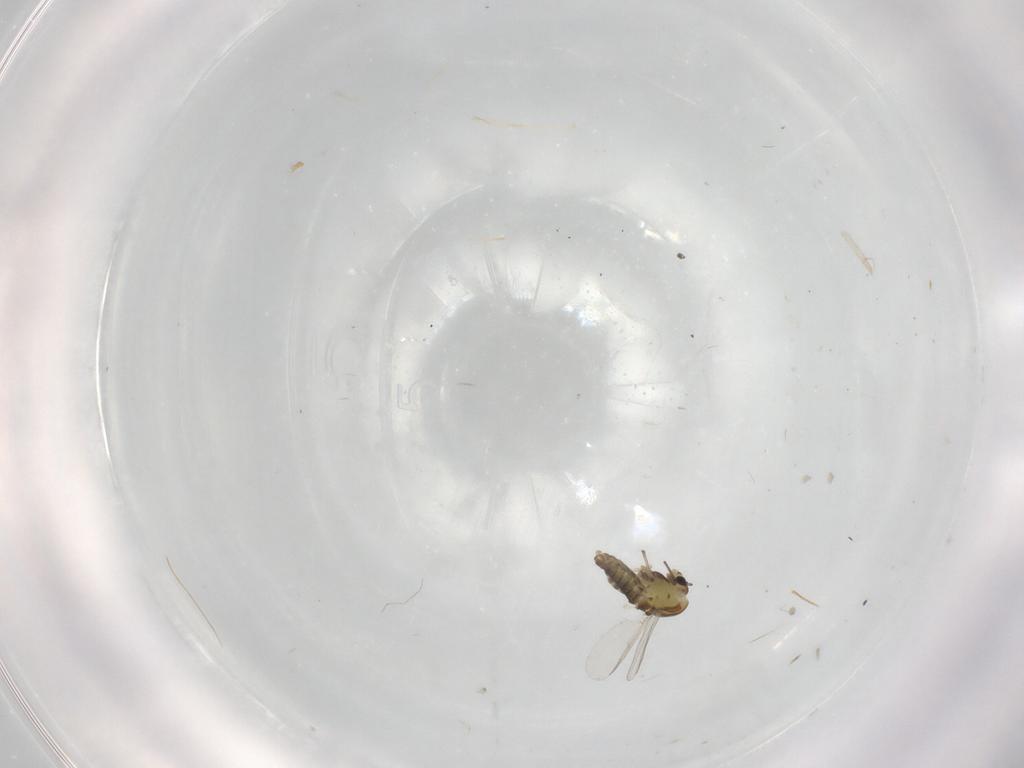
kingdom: Animalia
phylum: Arthropoda
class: Insecta
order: Diptera
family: Chironomidae
